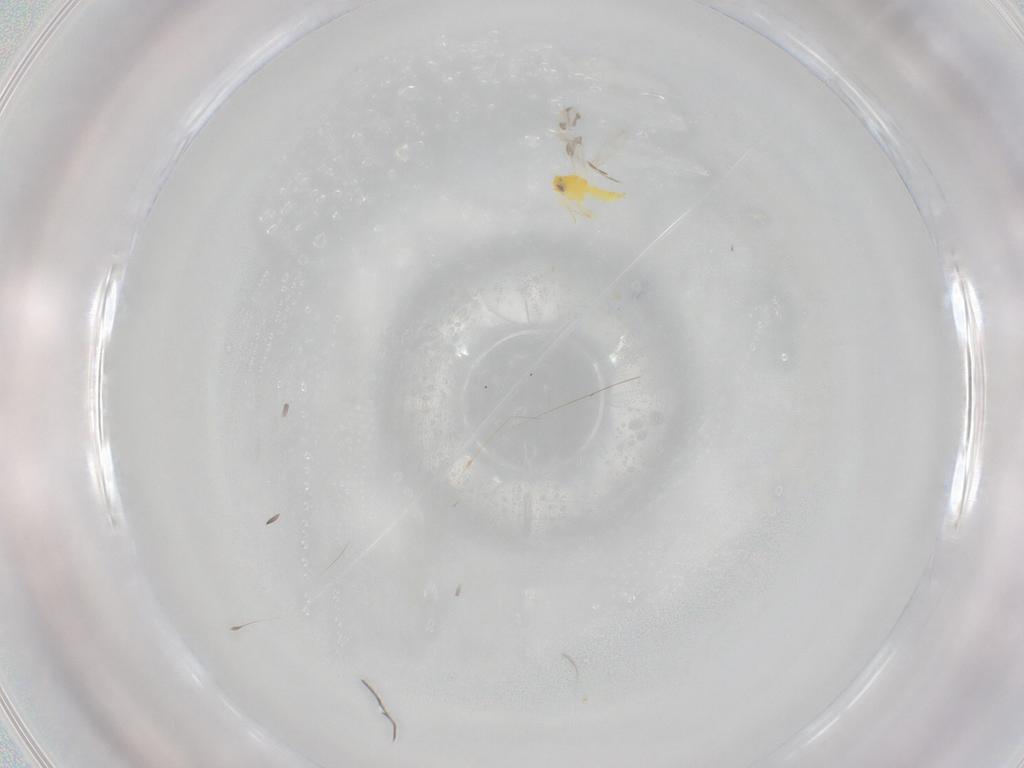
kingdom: Animalia
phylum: Arthropoda
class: Insecta
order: Hemiptera
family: Aleyrodidae
